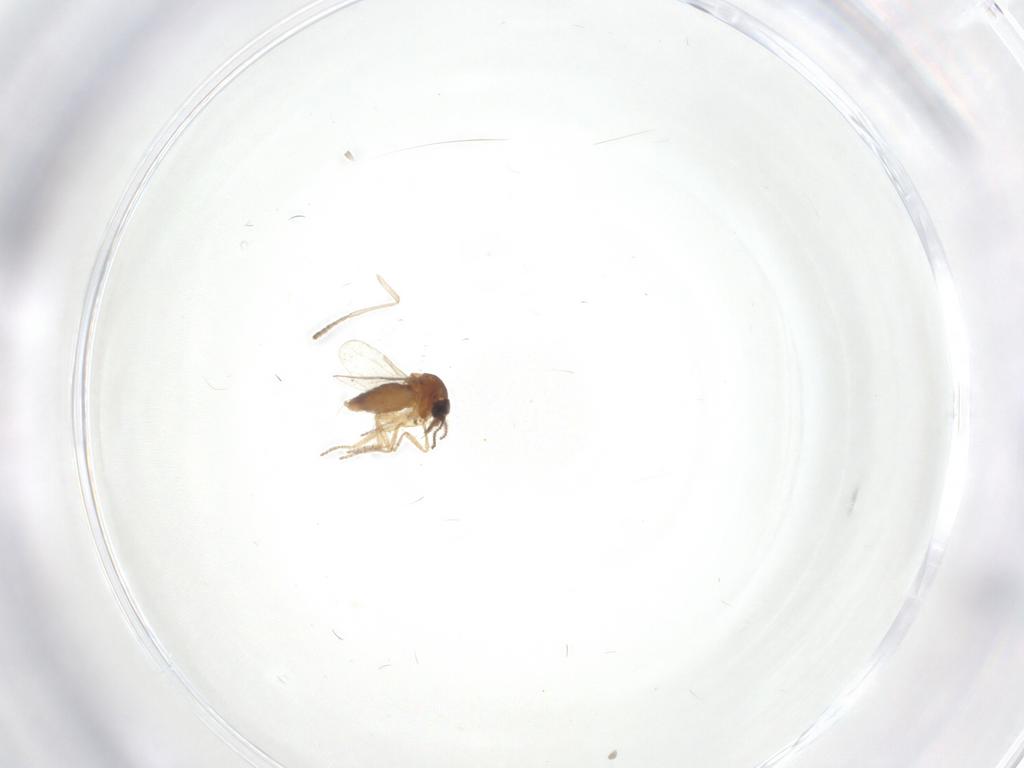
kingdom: Animalia
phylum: Arthropoda
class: Insecta
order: Diptera
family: Ceratopogonidae
